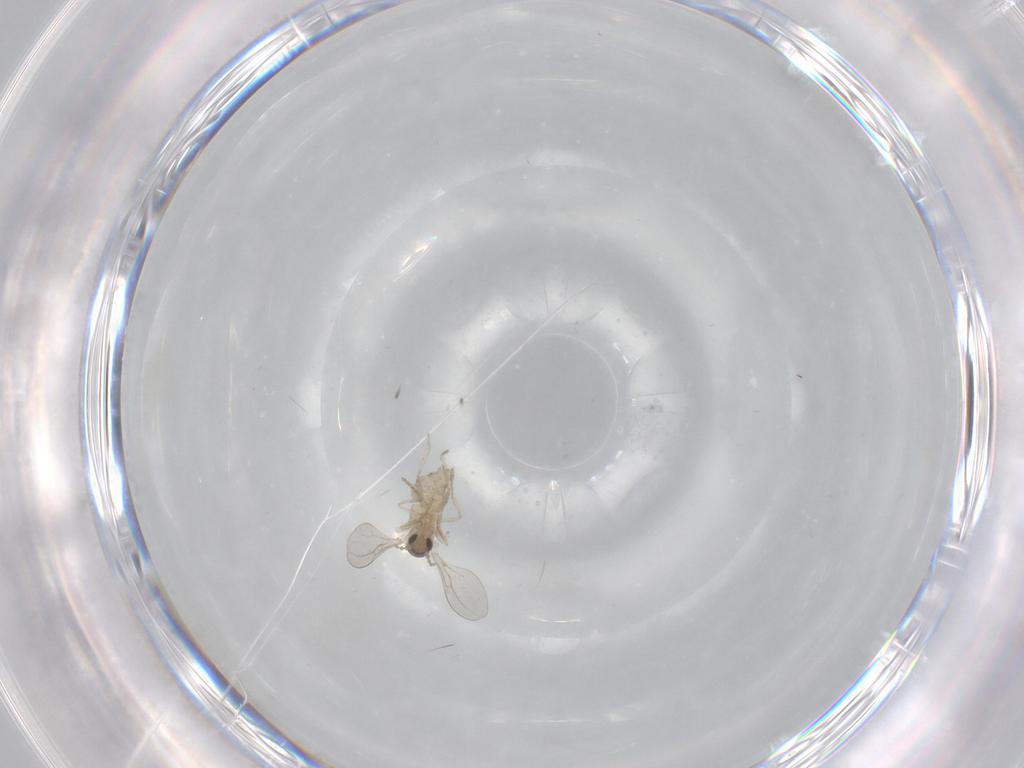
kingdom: Animalia
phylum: Arthropoda
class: Insecta
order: Diptera
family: Cecidomyiidae
